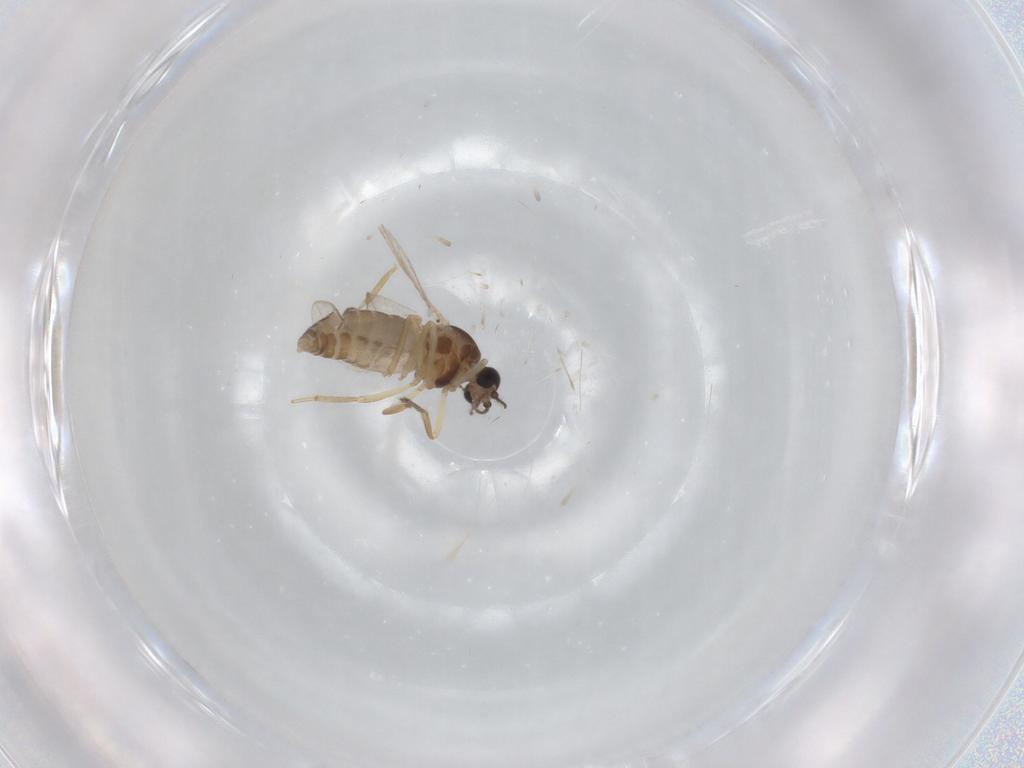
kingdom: Animalia
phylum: Arthropoda
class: Insecta
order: Diptera
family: Ceratopogonidae
